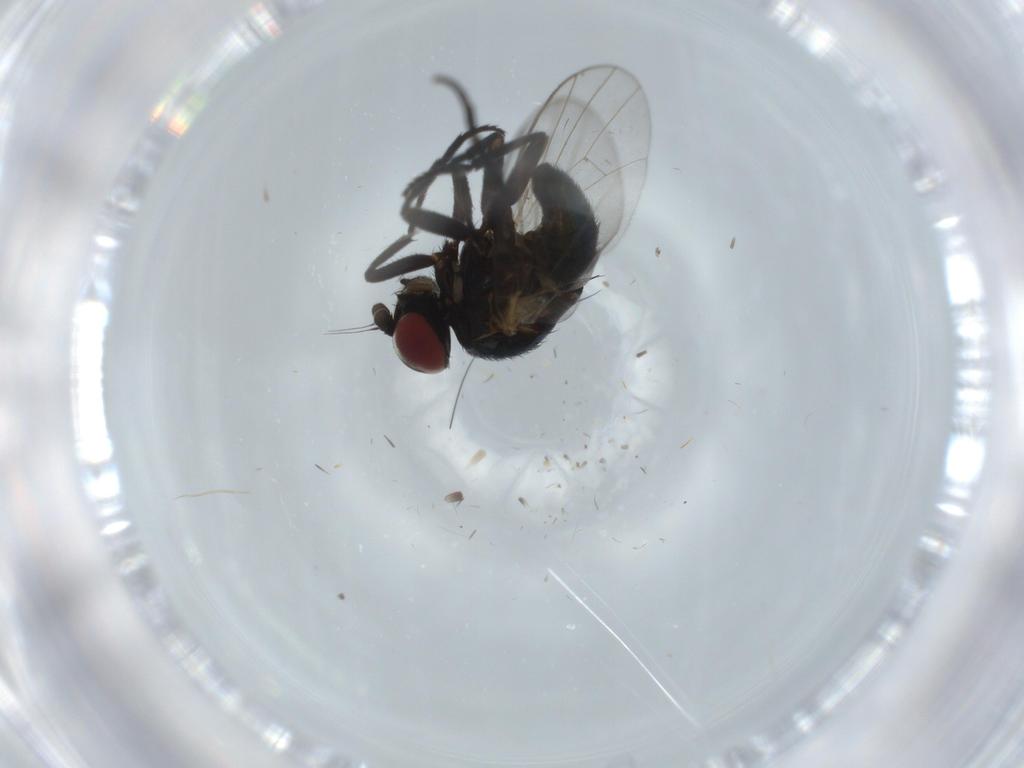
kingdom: Animalia
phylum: Arthropoda
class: Insecta
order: Diptera
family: Agromyzidae
